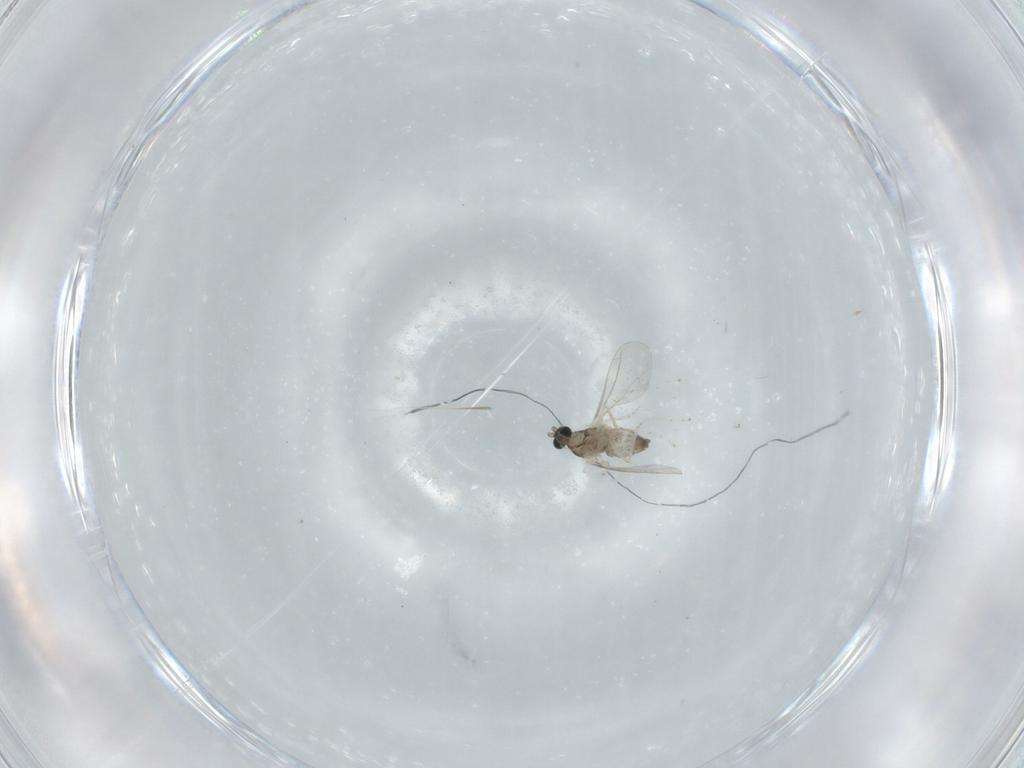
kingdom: Animalia
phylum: Arthropoda
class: Insecta
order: Diptera
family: Cecidomyiidae
